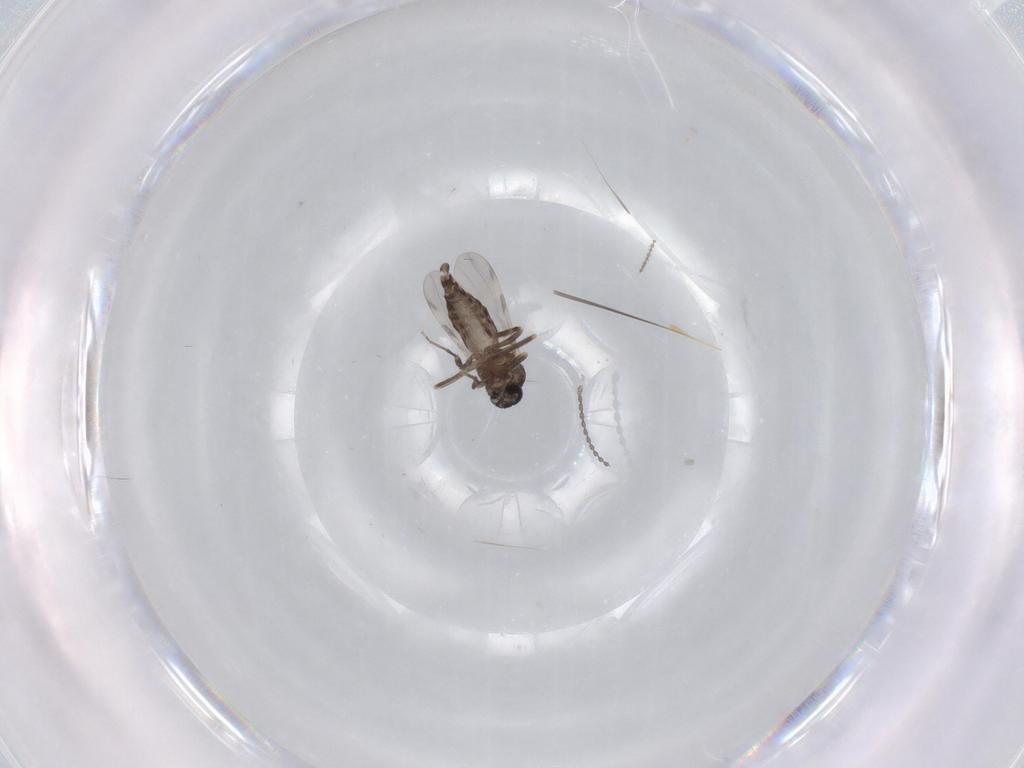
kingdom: Animalia
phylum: Arthropoda
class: Insecta
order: Diptera
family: Ceratopogonidae
